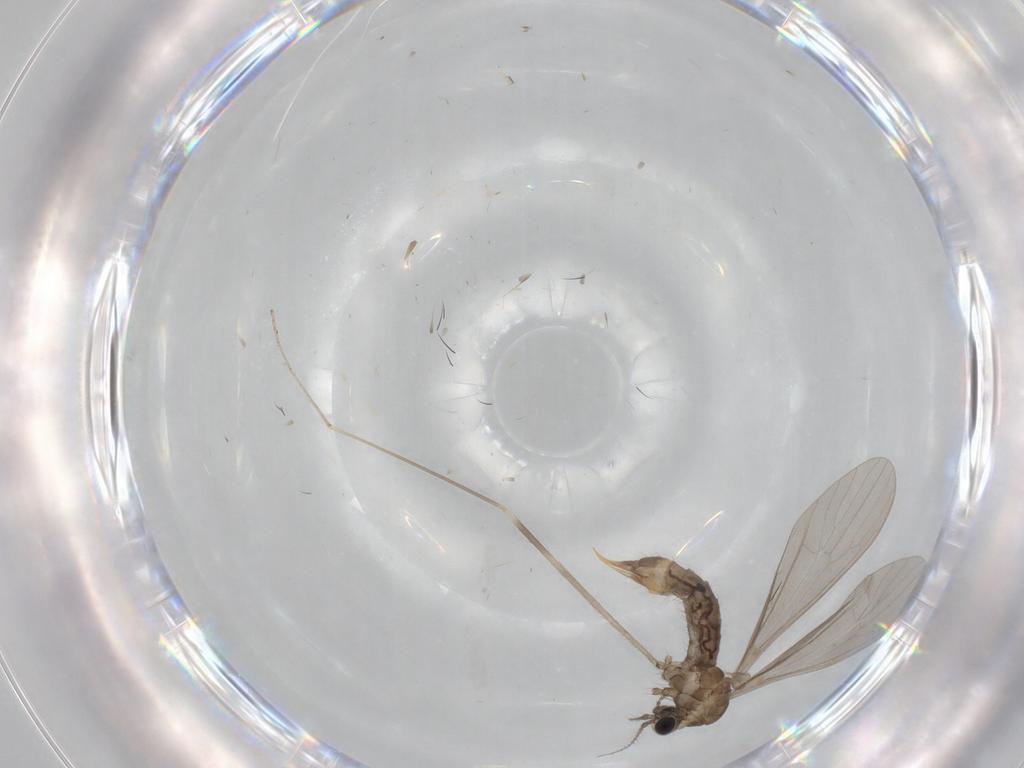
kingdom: Animalia
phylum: Arthropoda
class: Insecta
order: Diptera
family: Limoniidae
